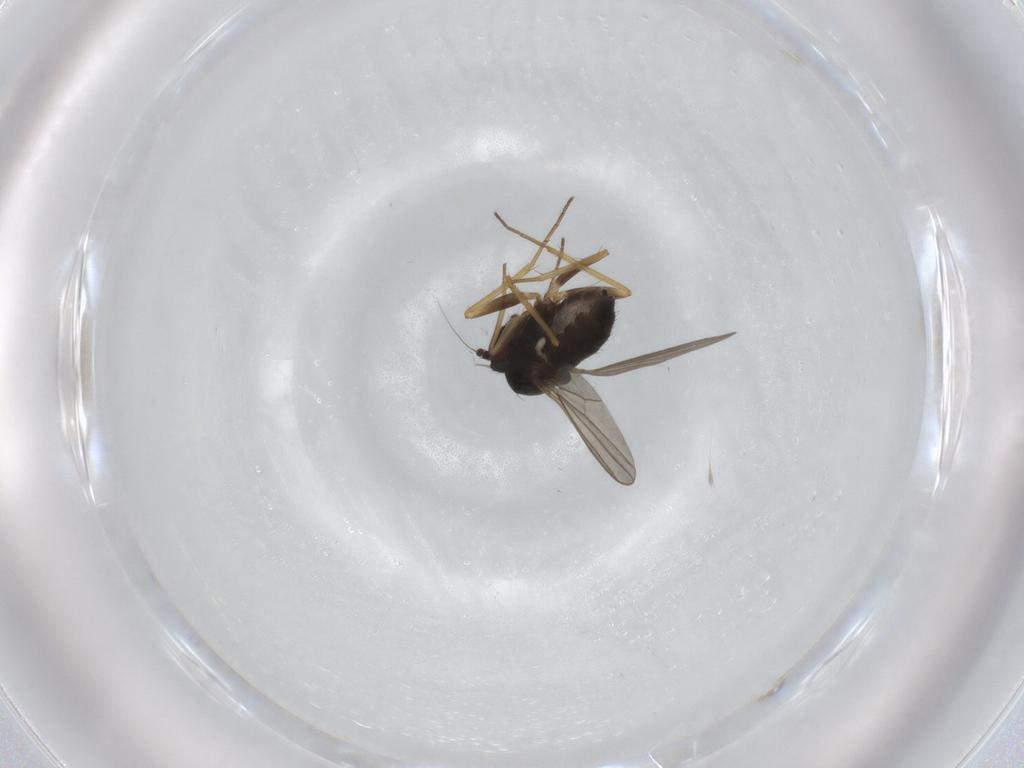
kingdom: Animalia
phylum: Arthropoda
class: Insecta
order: Diptera
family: Dolichopodidae
